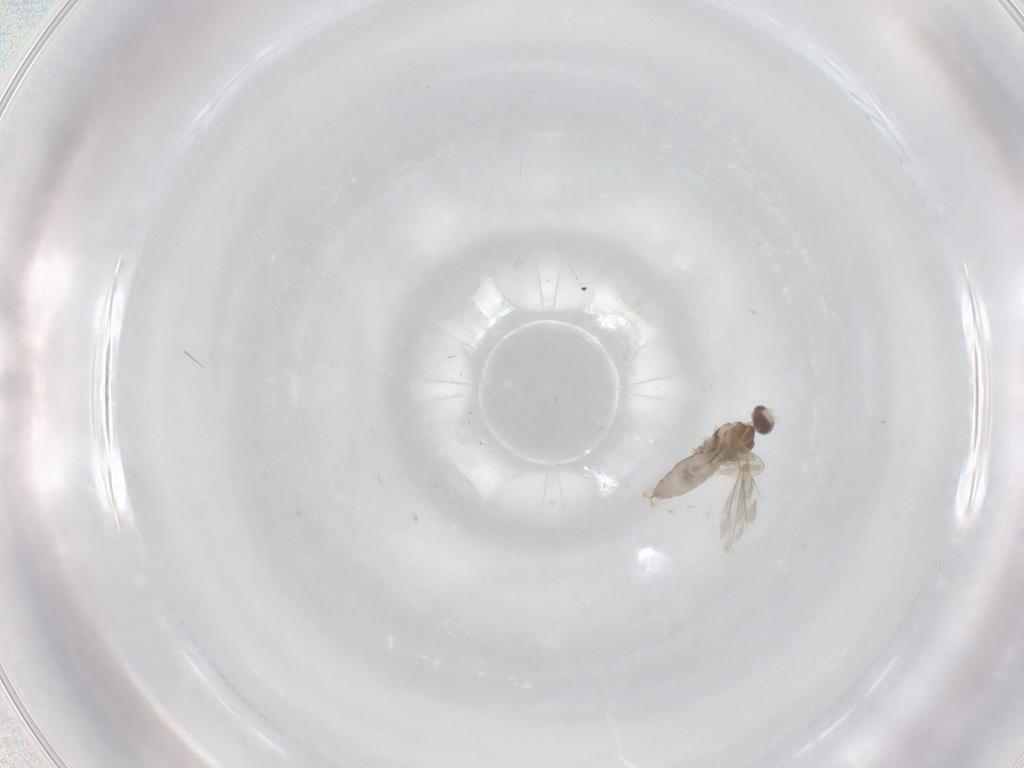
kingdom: Animalia
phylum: Arthropoda
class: Insecta
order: Diptera
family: Cecidomyiidae
